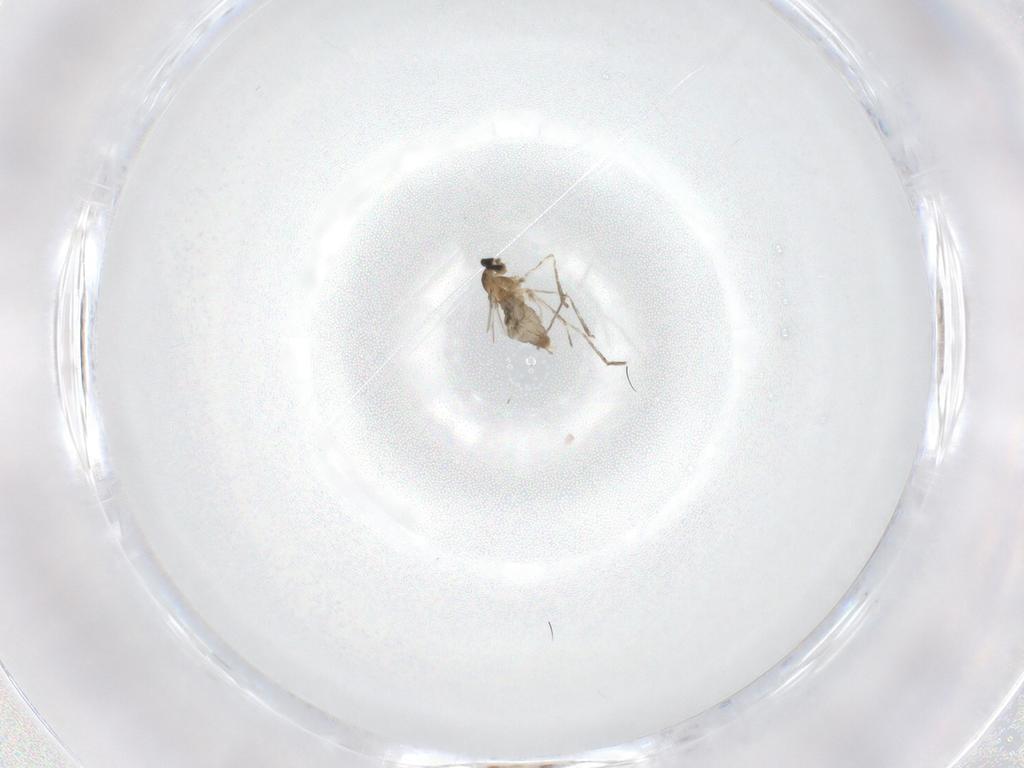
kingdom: Animalia
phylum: Arthropoda
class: Insecta
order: Diptera
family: Cecidomyiidae
